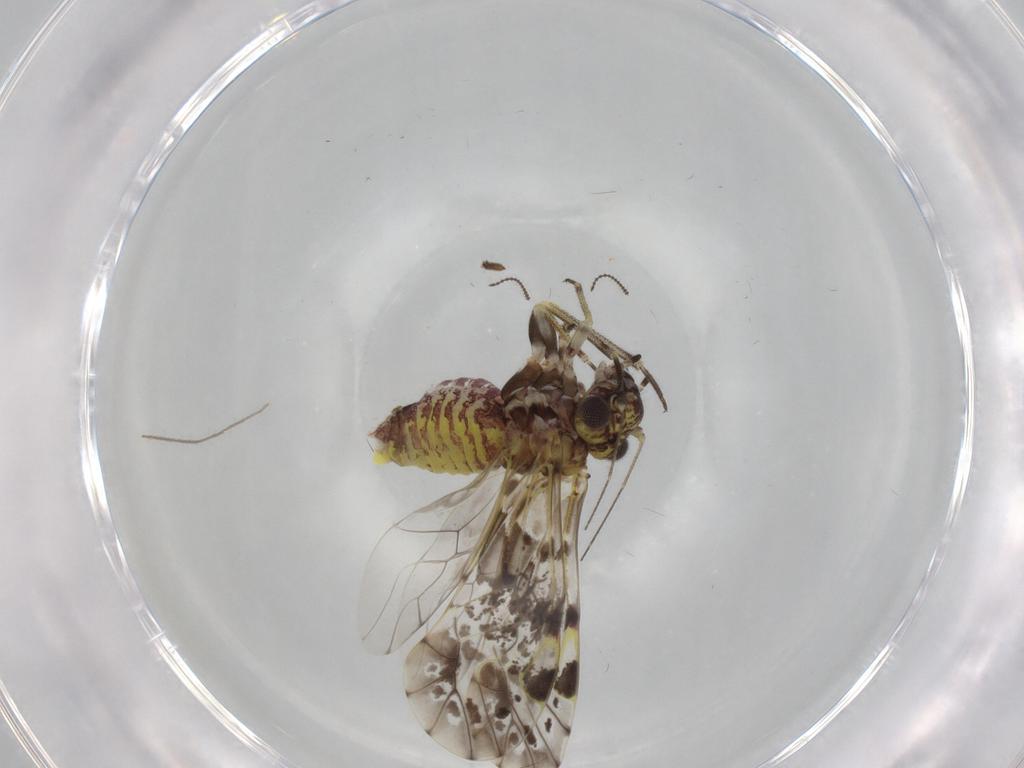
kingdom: Animalia
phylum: Arthropoda
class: Insecta
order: Psocodea
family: Psocidae
